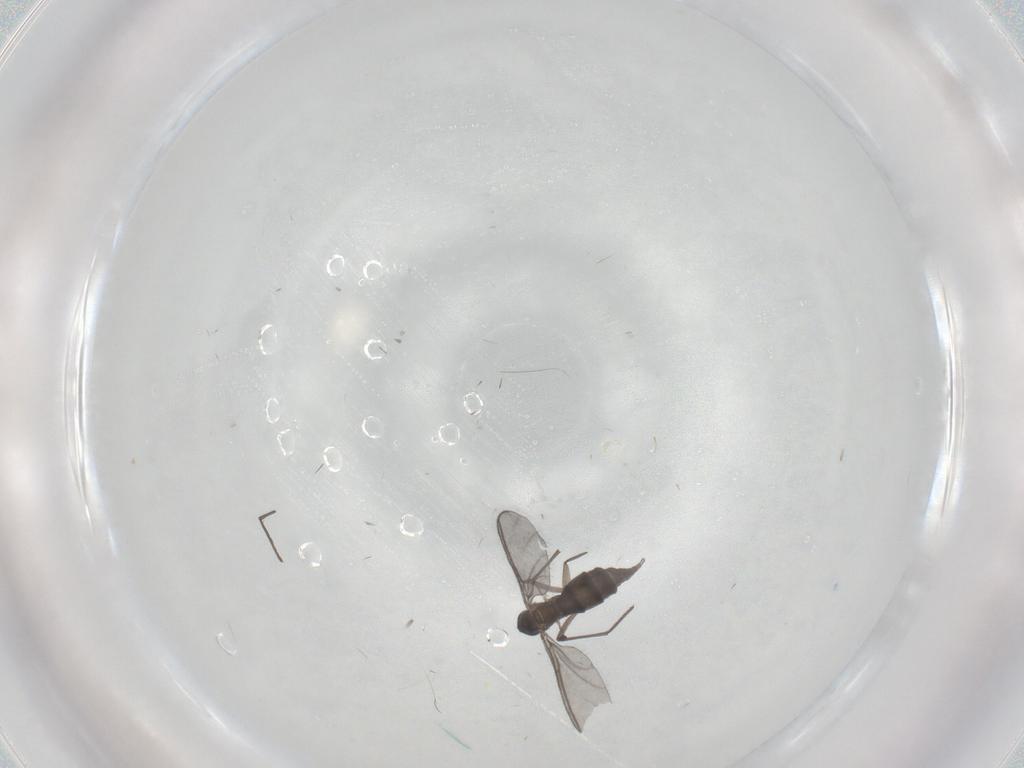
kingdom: Animalia
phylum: Arthropoda
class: Insecta
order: Diptera
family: Sciaridae
